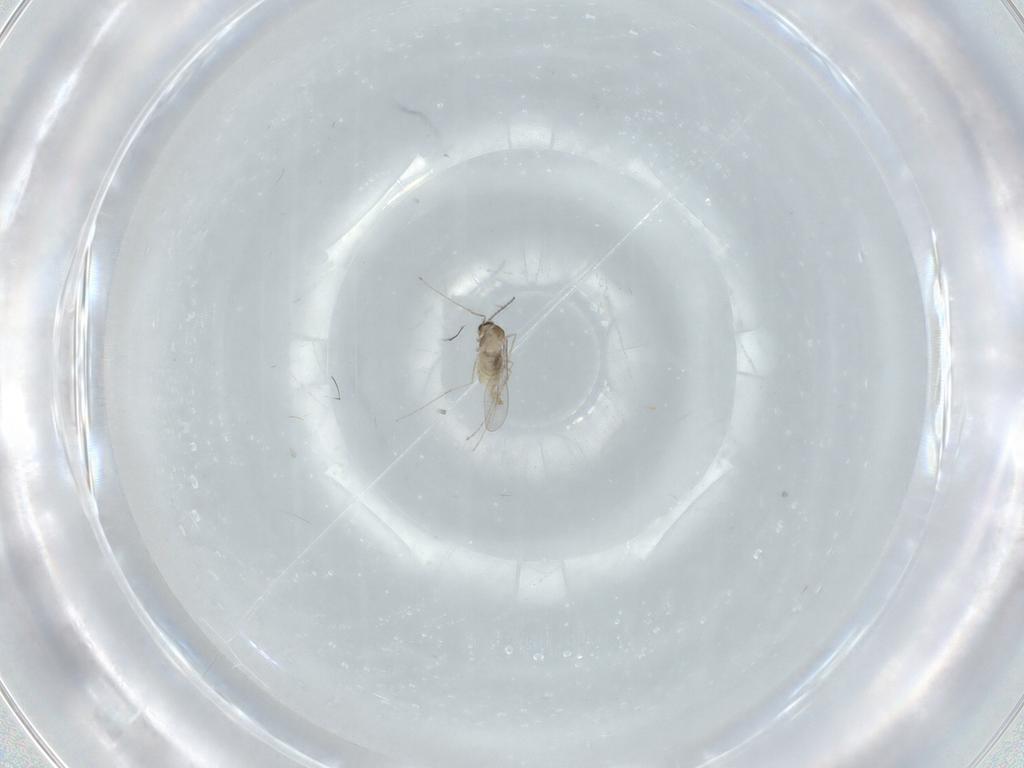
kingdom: Animalia
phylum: Arthropoda
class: Insecta
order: Diptera
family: Cecidomyiidae
